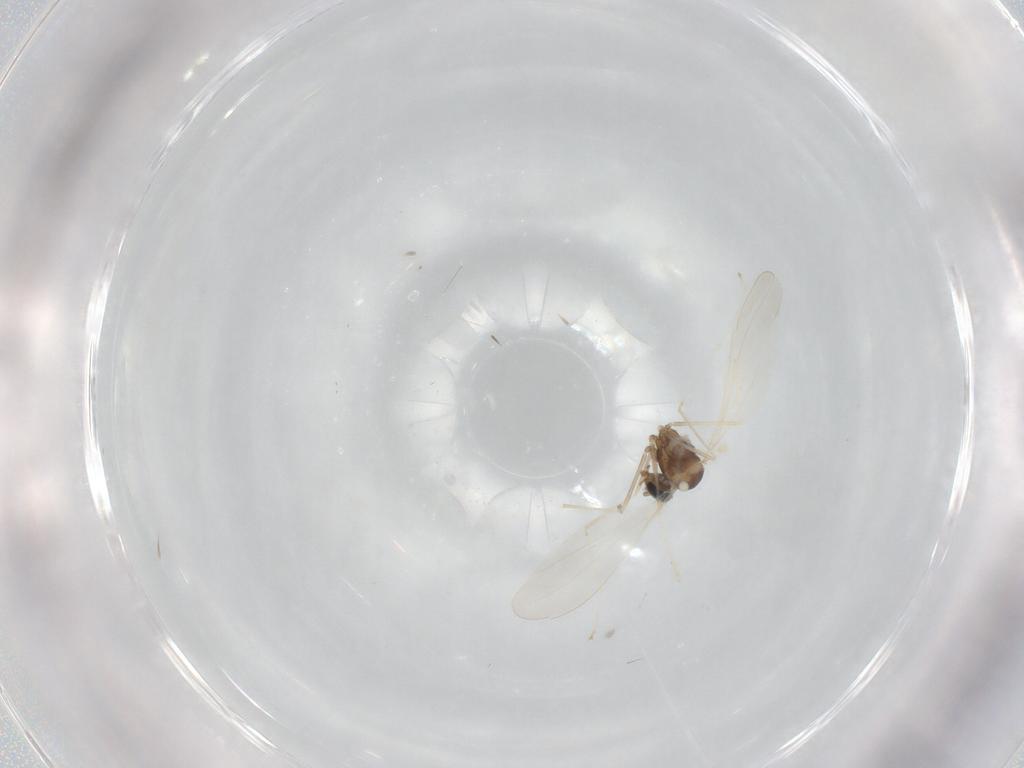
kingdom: Animalia
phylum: Arthropoda
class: Insecta
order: Diptera
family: Cecidomyiidae
